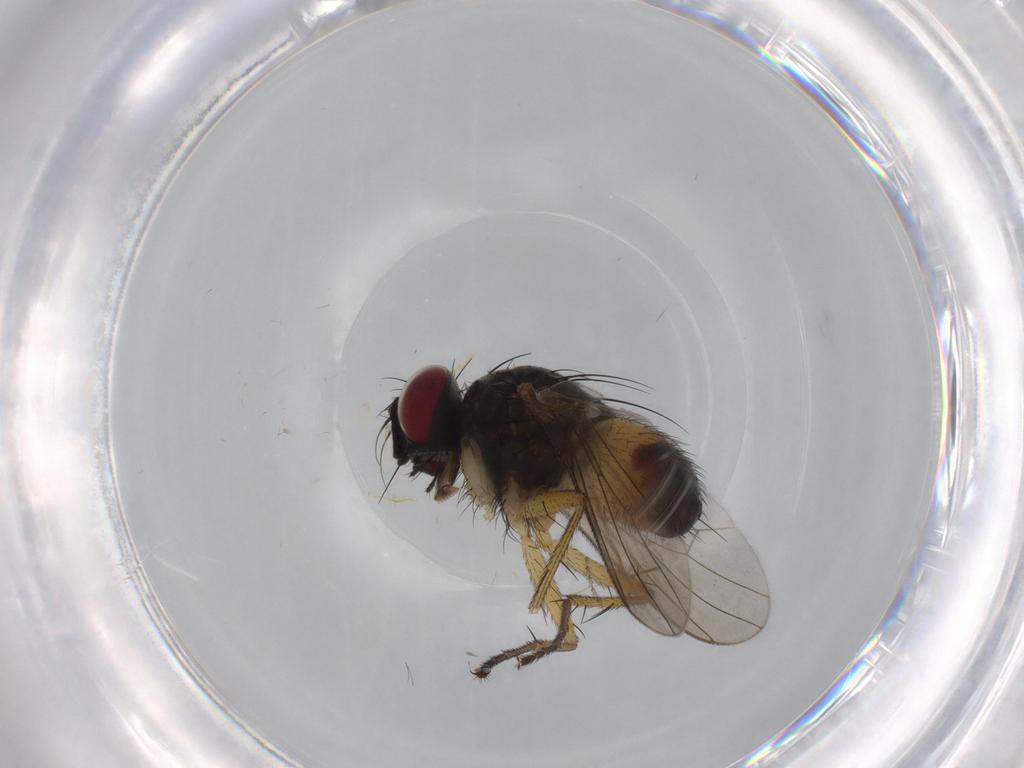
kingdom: Animalia
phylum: Arthropoda
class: Insecta
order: Diptera
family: Muscidae
